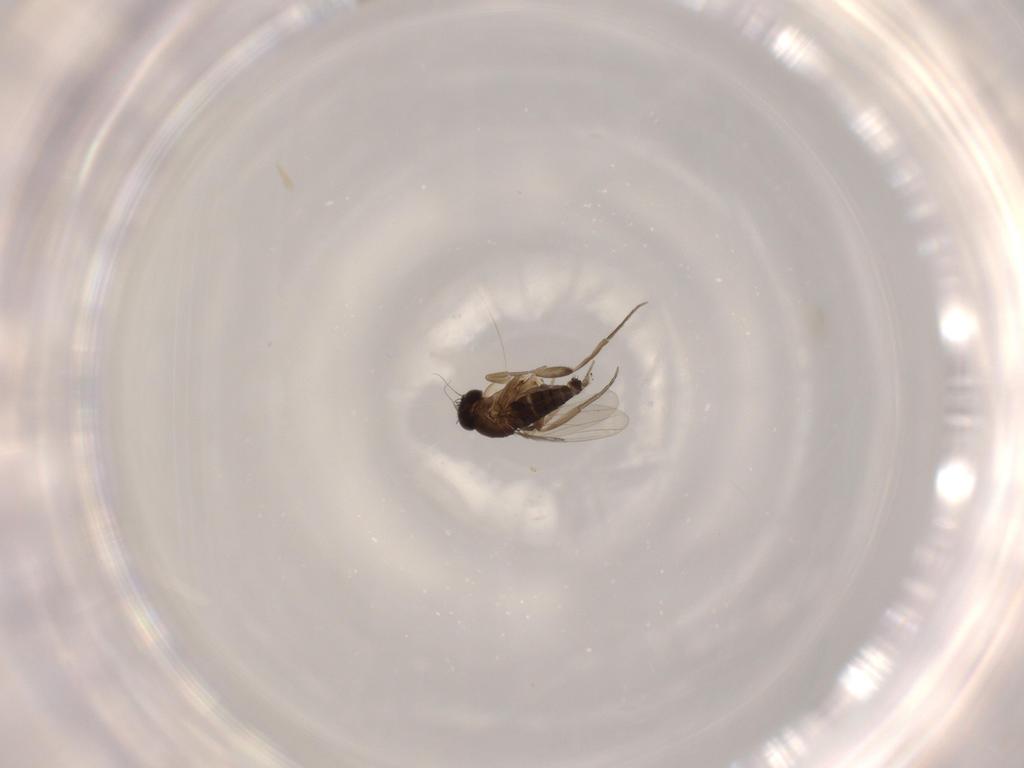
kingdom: Animalia
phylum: Arthropoda
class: Insecta
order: Diptera
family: Phoridae
